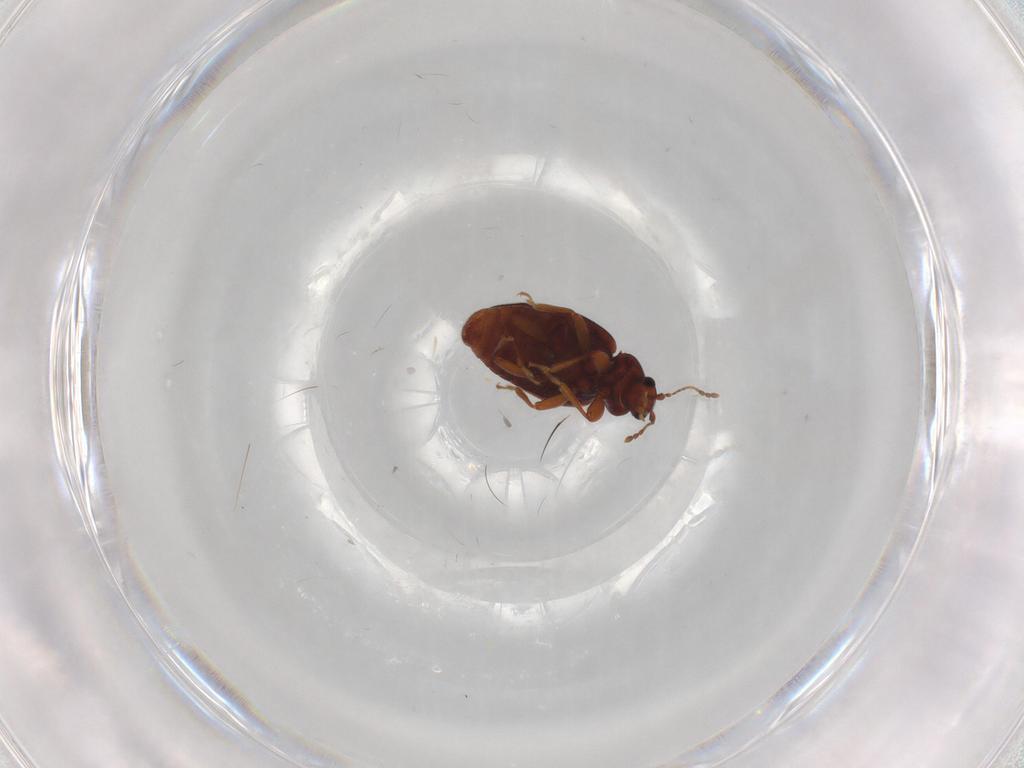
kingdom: Animalia
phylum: Arthropoda
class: Insecta
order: Coleoptera
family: Latridiidae
